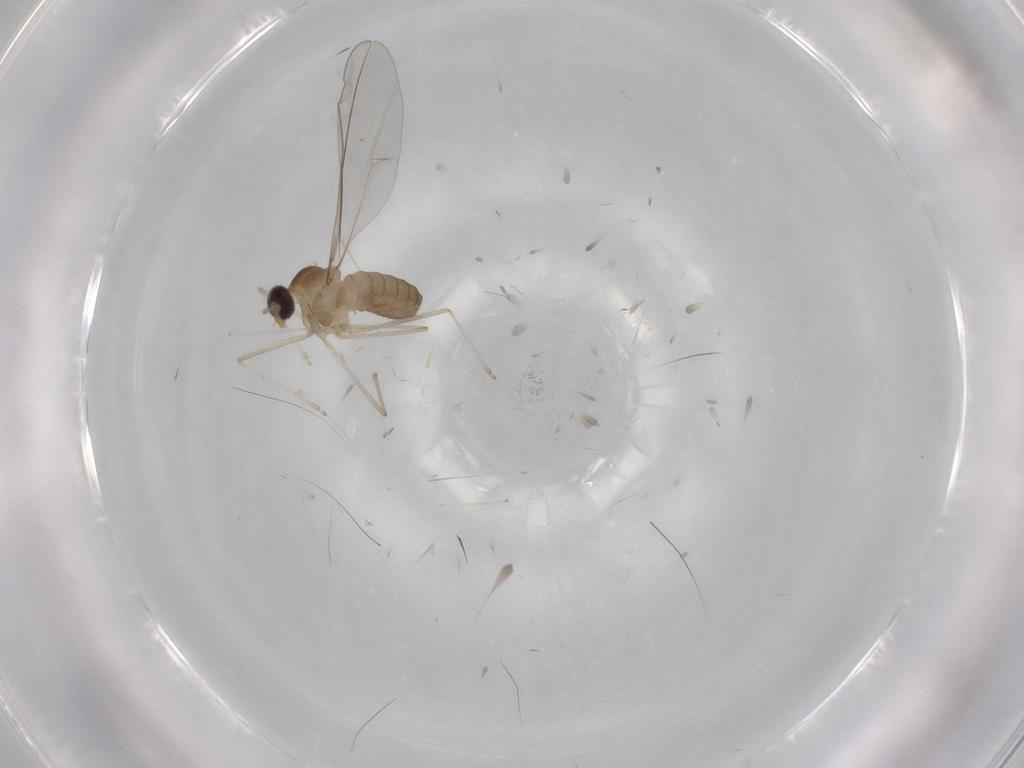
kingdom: Animalia
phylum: Arthropoda
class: Insecta
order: Diptera
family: Cecidomyiidae
